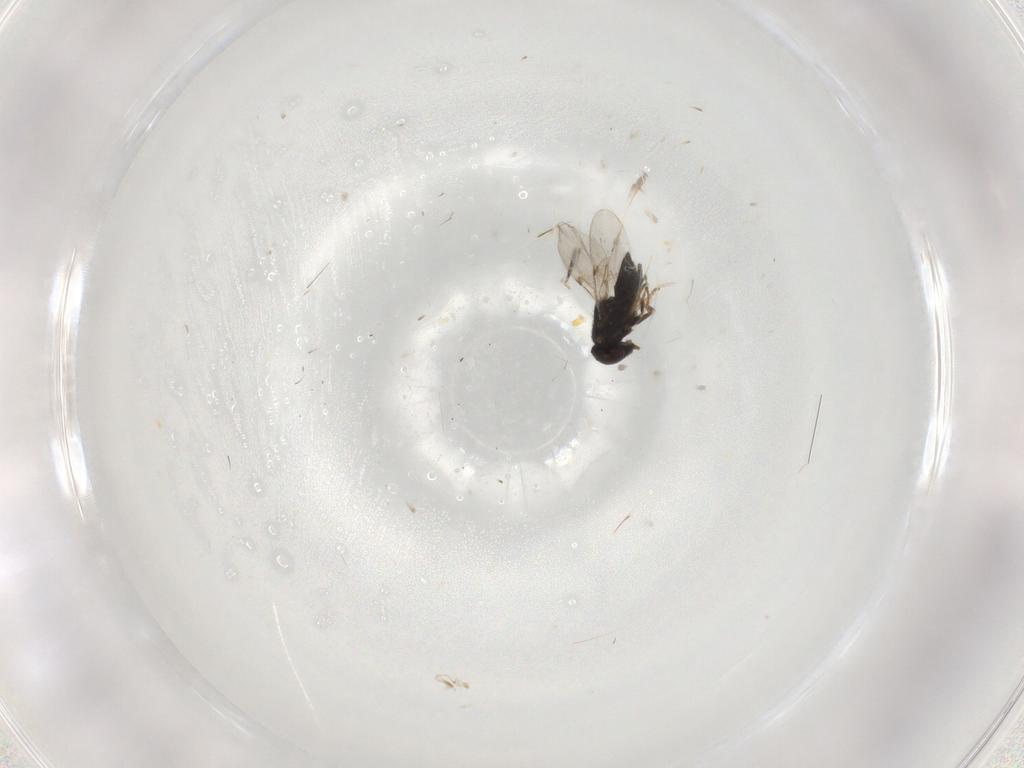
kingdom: Animalia
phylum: Arthropoda
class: Insecta
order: Hymenoptera
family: Encyrtidae
